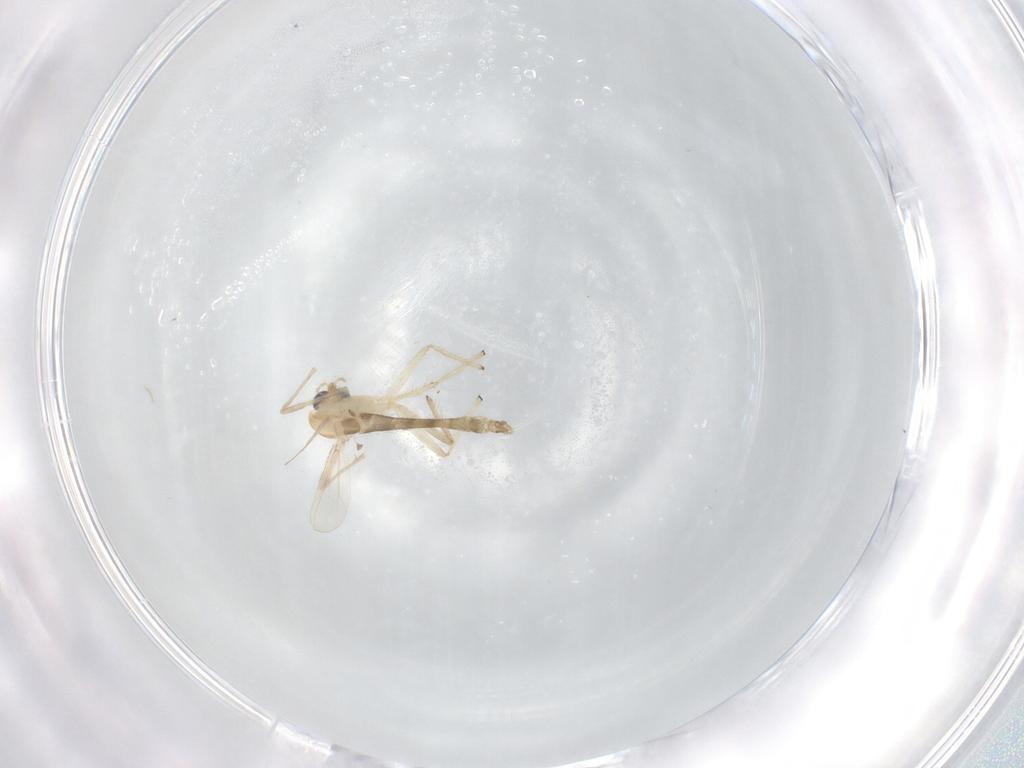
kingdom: Animalia
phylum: Arthropoda
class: Insecta
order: Diptera
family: Chironomidae
